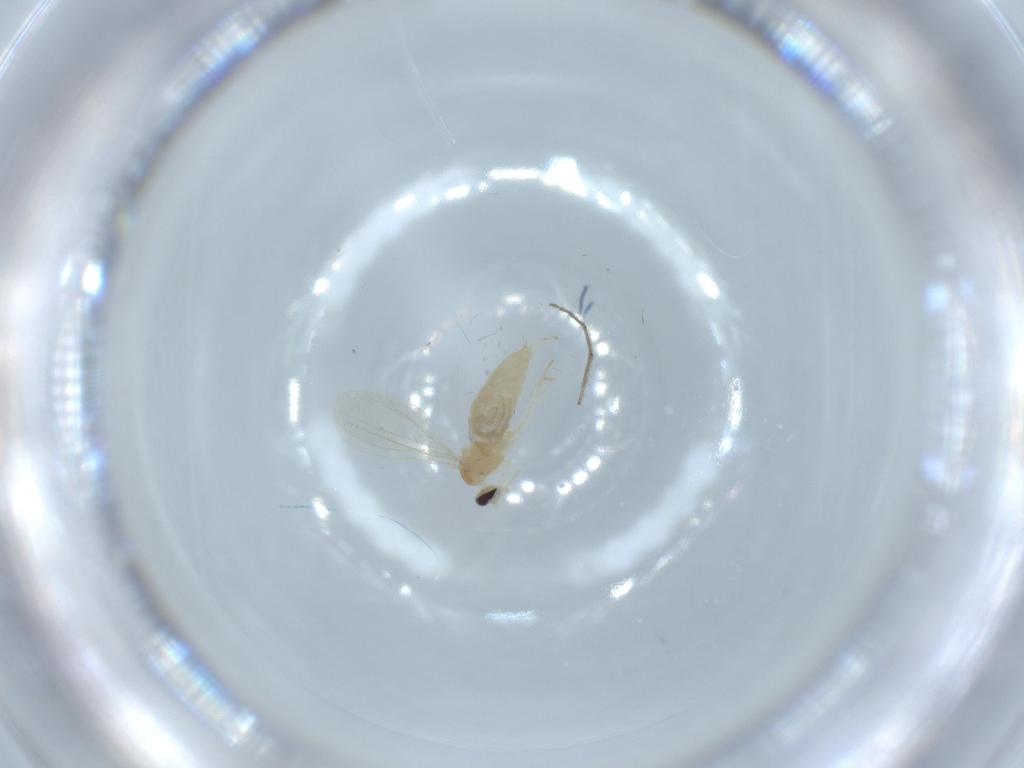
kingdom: Animalia
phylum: Arthropoda
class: Insecta
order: Diptera
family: Cecidomyiidae
